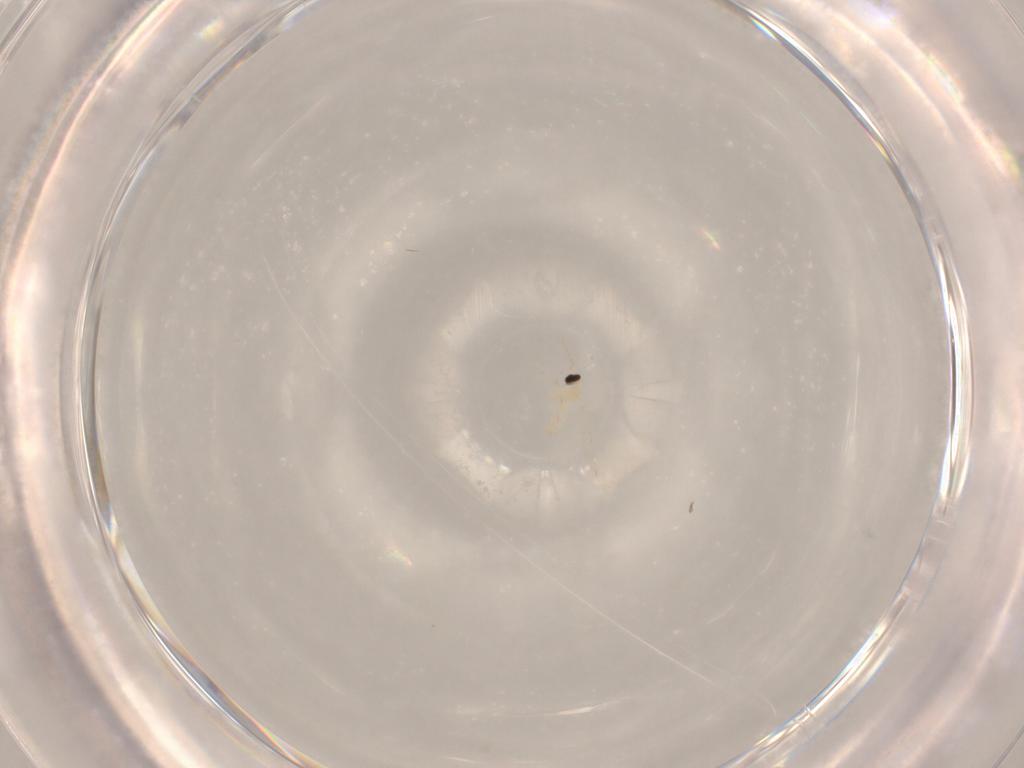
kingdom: Animalia
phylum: Arthropoda
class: Insecta
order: Diptera
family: Cecidomyiidae
